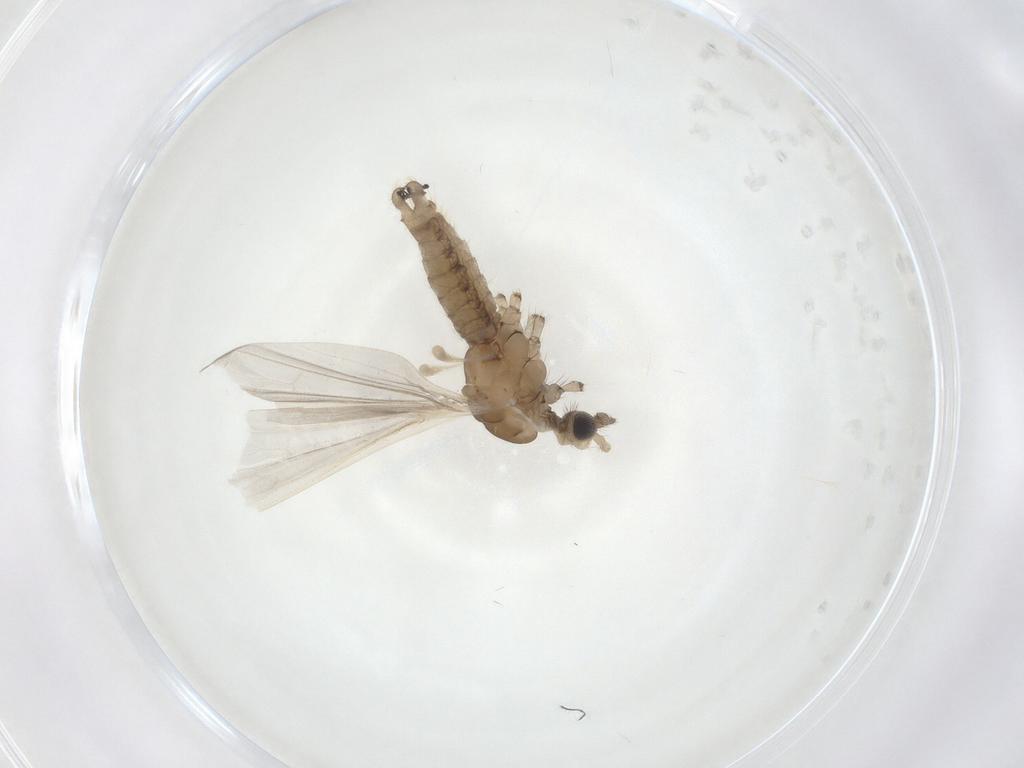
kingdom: Animalia
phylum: Arthropoda
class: Insecta
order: Diptera
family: Limoniidae
